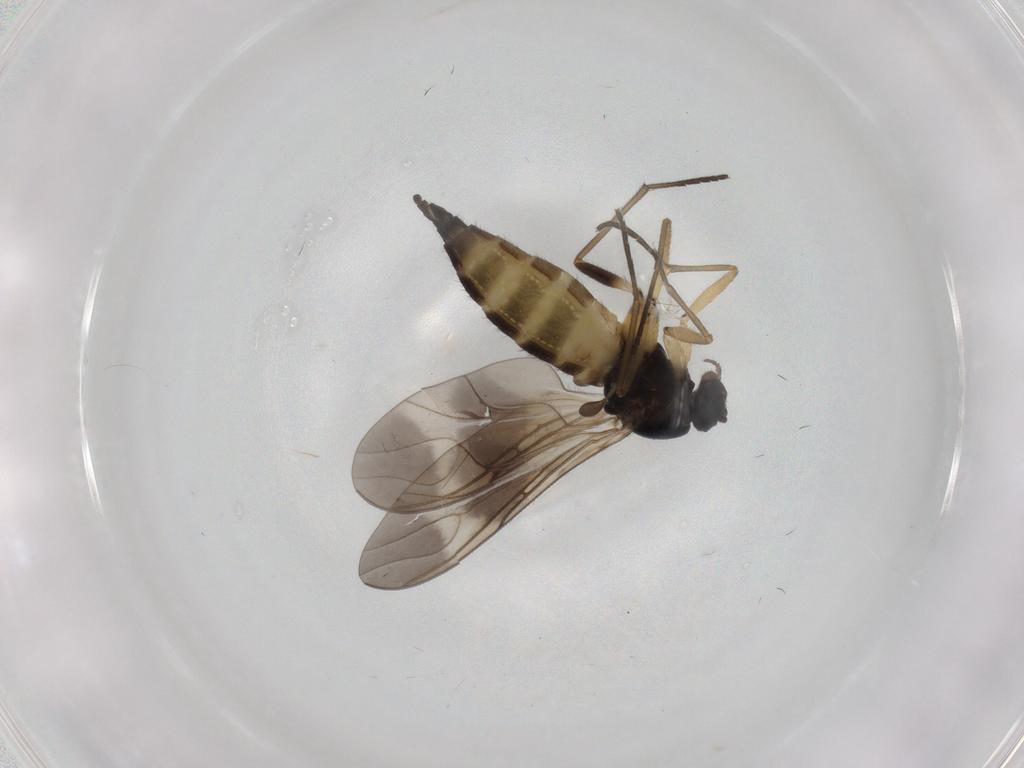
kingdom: Animalia
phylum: Arthropoda
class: Insecta
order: Diptera
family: Sciaridae
